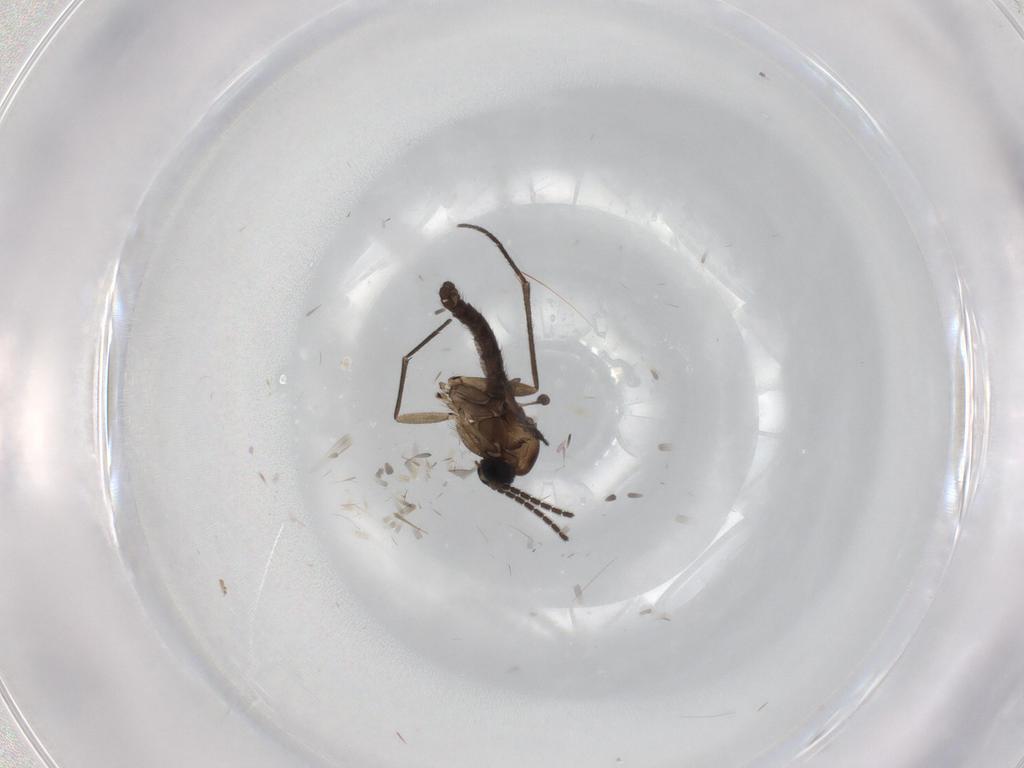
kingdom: Animalia
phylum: Arthropoda
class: Insecta
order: Diptera
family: Sciaridae
